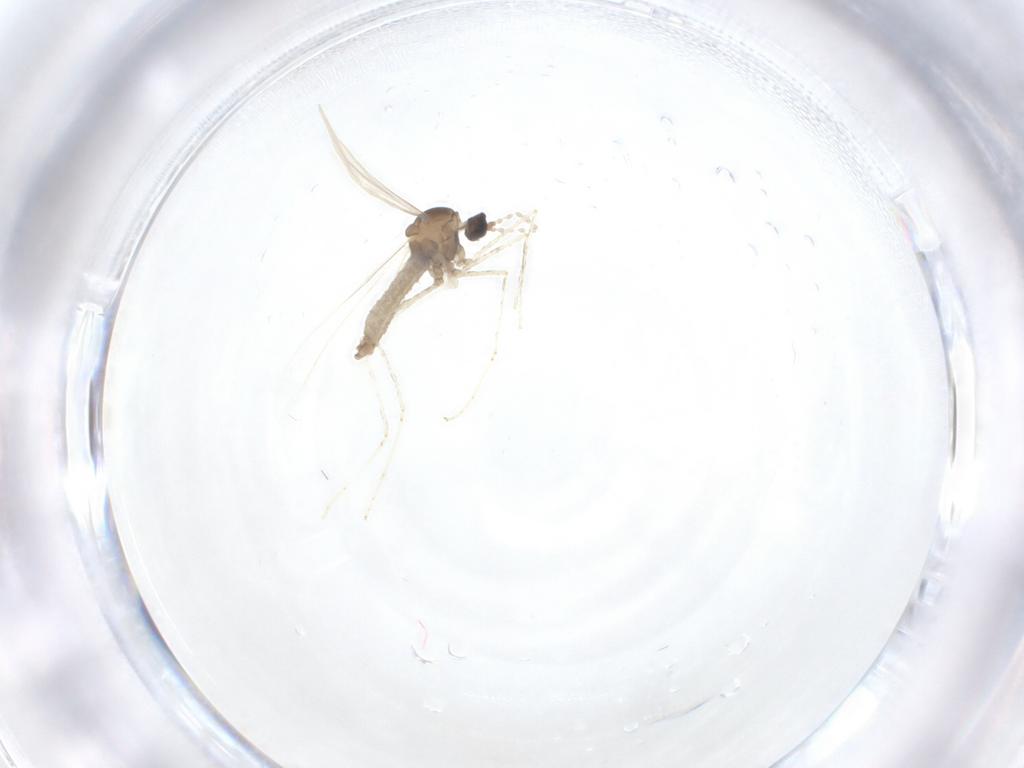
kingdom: Animalia
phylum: Arthropoda
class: Insecta
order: Diptera
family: Cecidomyiidae
